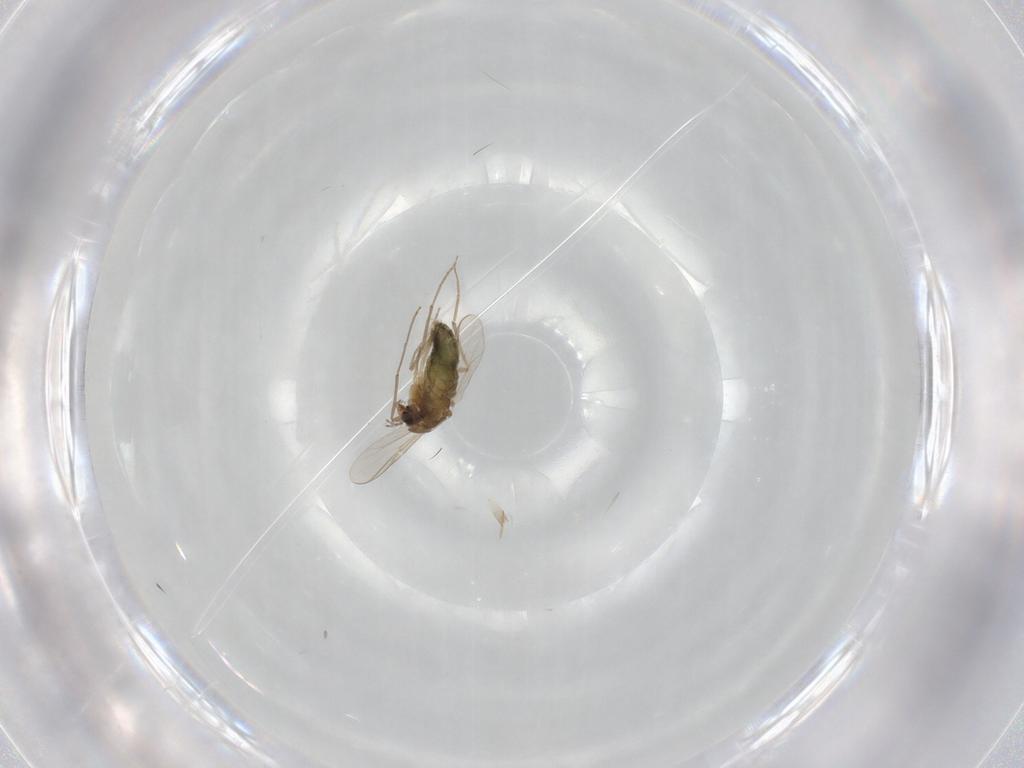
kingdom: Animalia
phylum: Arthropoda
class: Insecta
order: Diptera
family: Chironomidae
